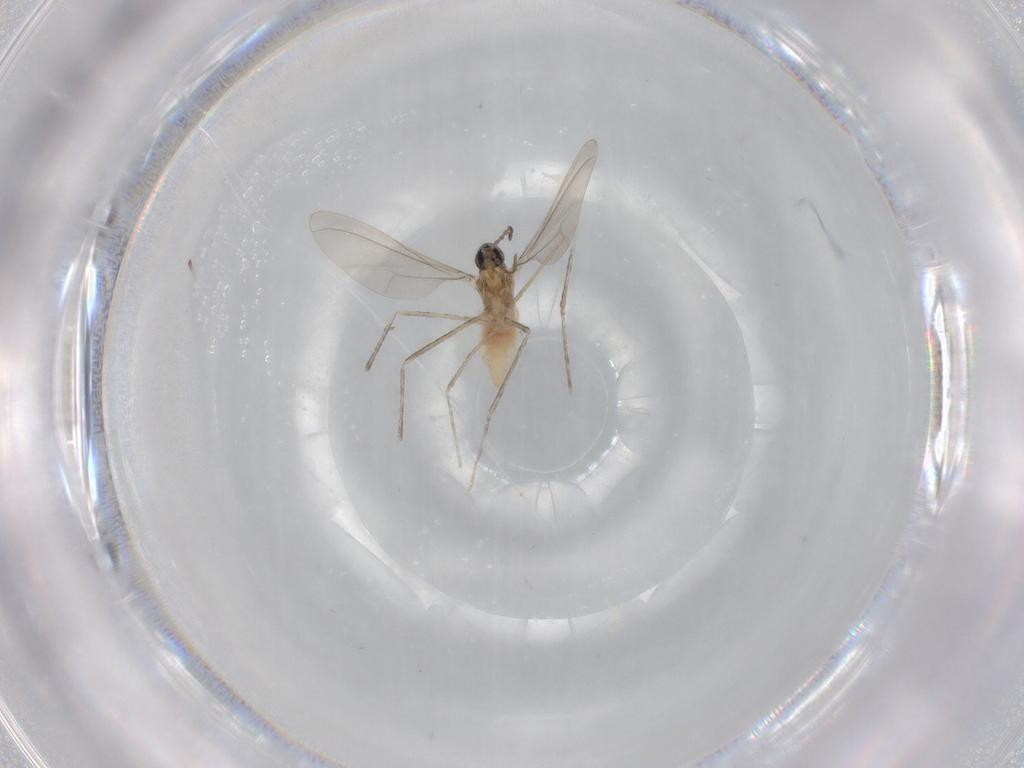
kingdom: Animalia
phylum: Arthropoda
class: Insecta
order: Diptera
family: Cecidomyiidae
